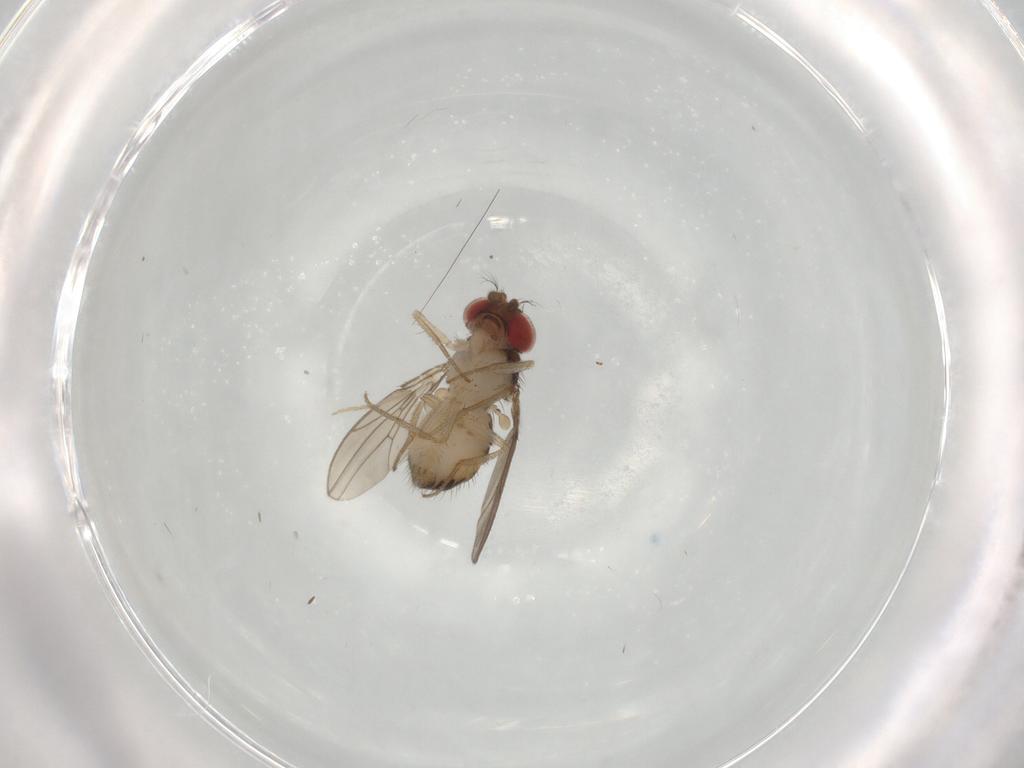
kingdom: Animalia
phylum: Arthropoda
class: Insecta
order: Diptera
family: Drosophilidae
